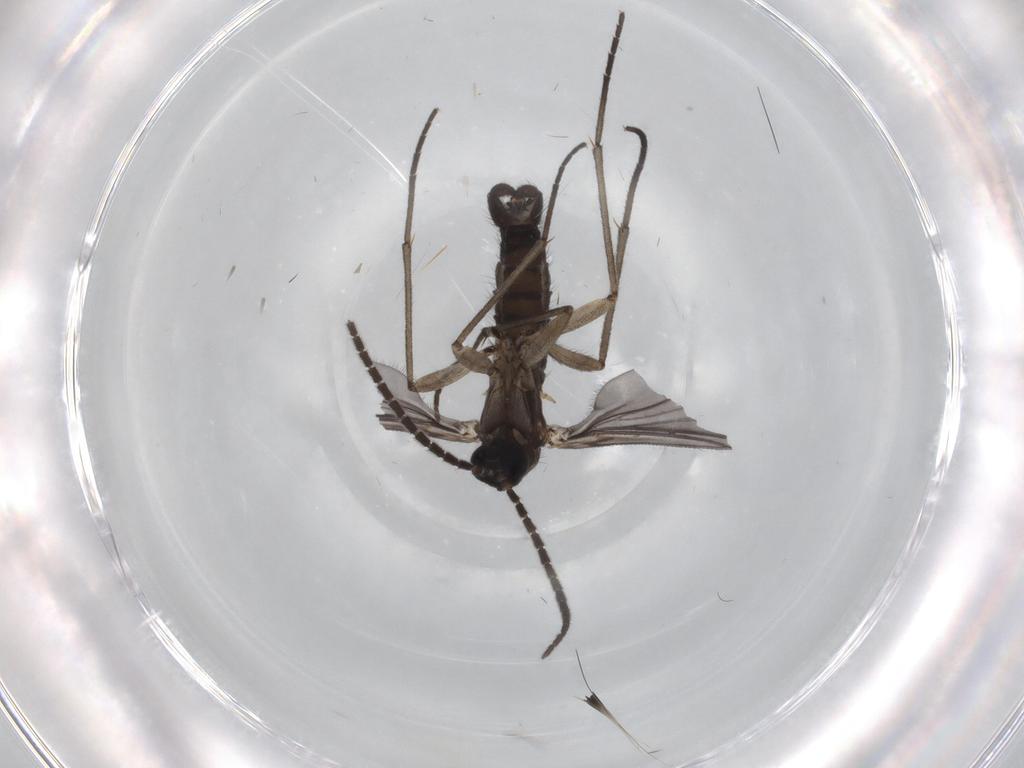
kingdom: Animalia
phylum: Arthropoda
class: Insecta
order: Diptera
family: Sciaridae
